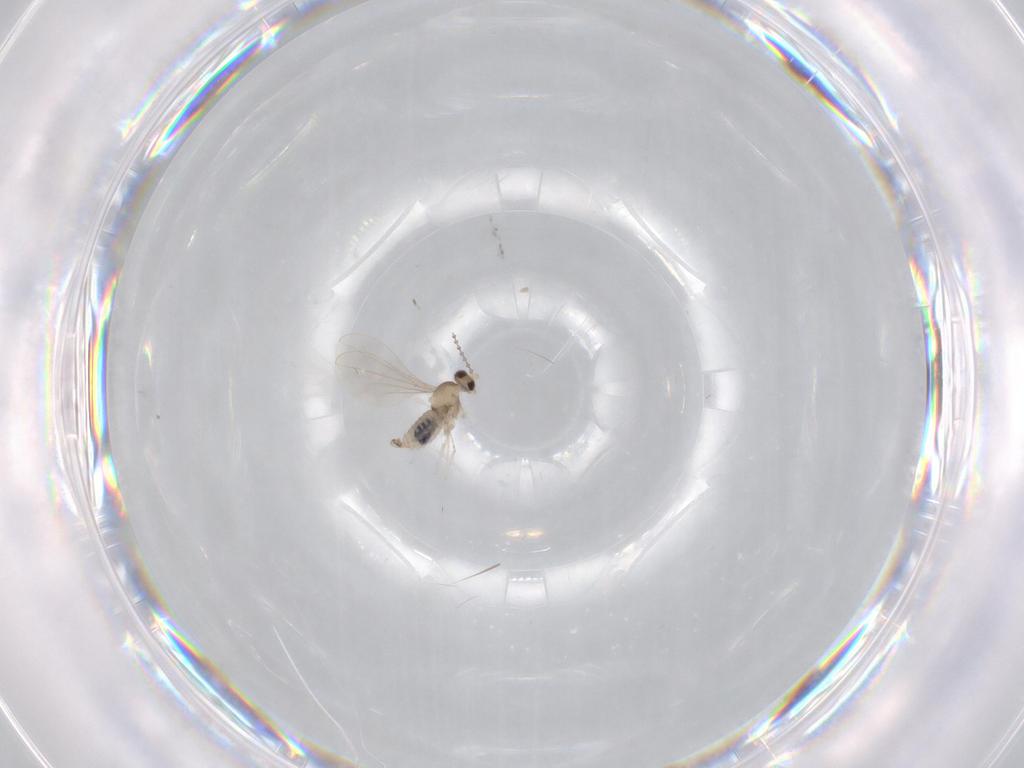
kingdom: Animalia
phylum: Arthropoda
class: Insecta
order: Diptera
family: Cecidomyiidae
